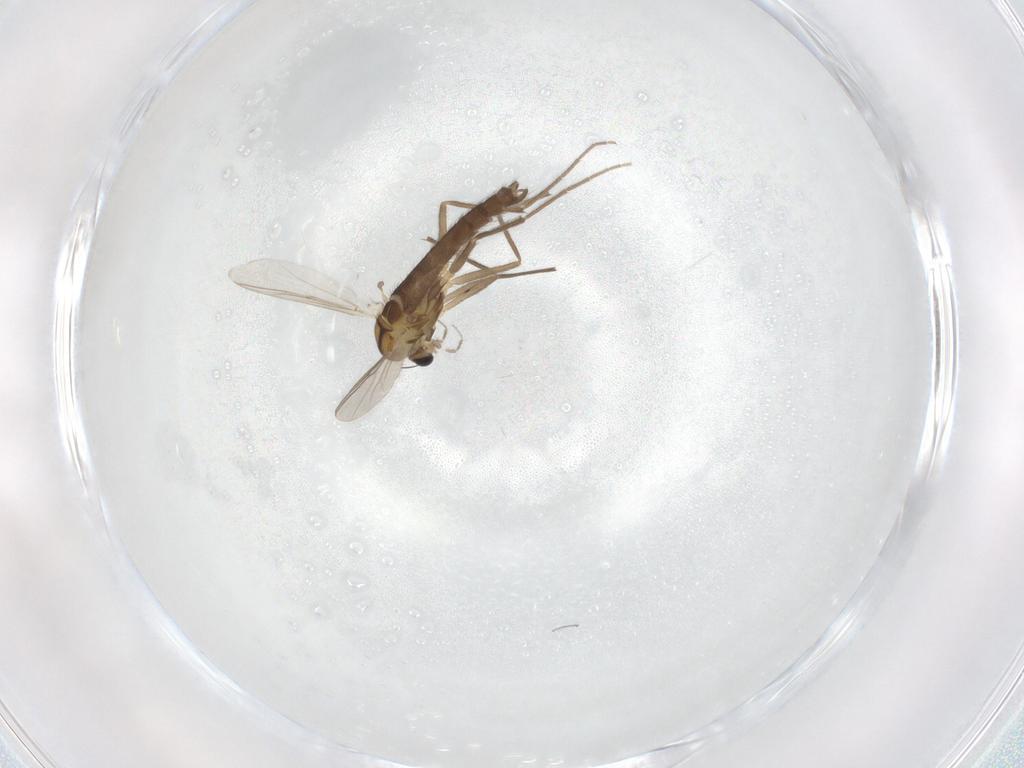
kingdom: Animalia
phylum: Arthropoda
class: Insecta
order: Diptera
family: Chironomidae
